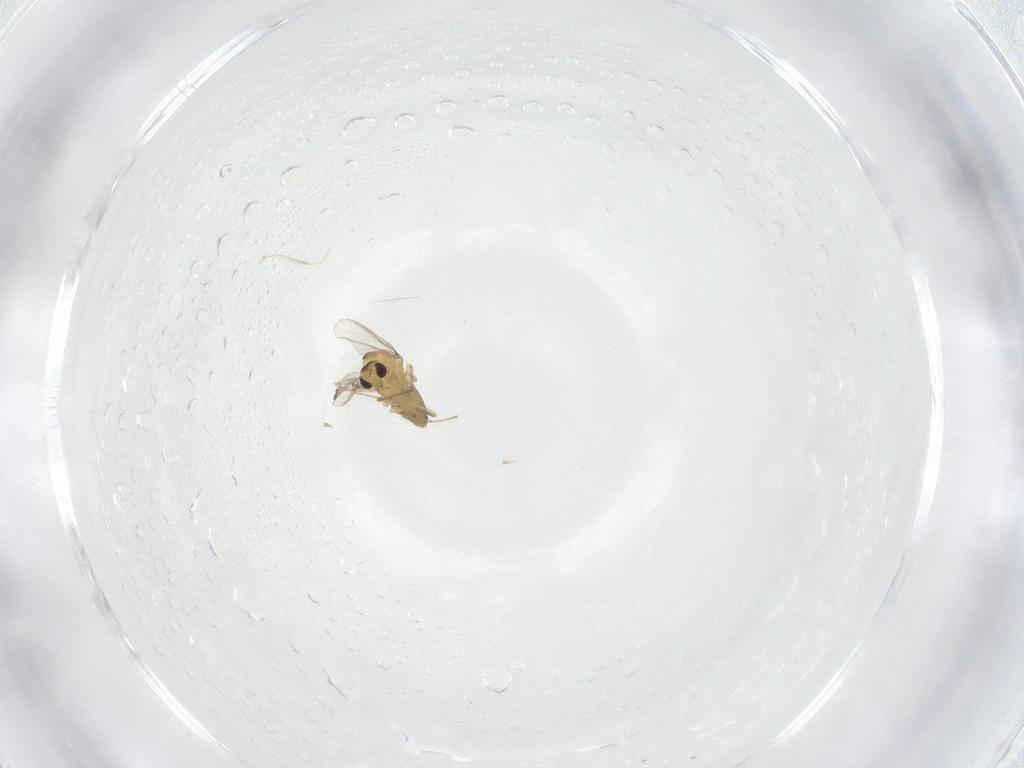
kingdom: Animalia
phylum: Arthropoda
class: Insecta
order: Diptera
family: Chironomidae
